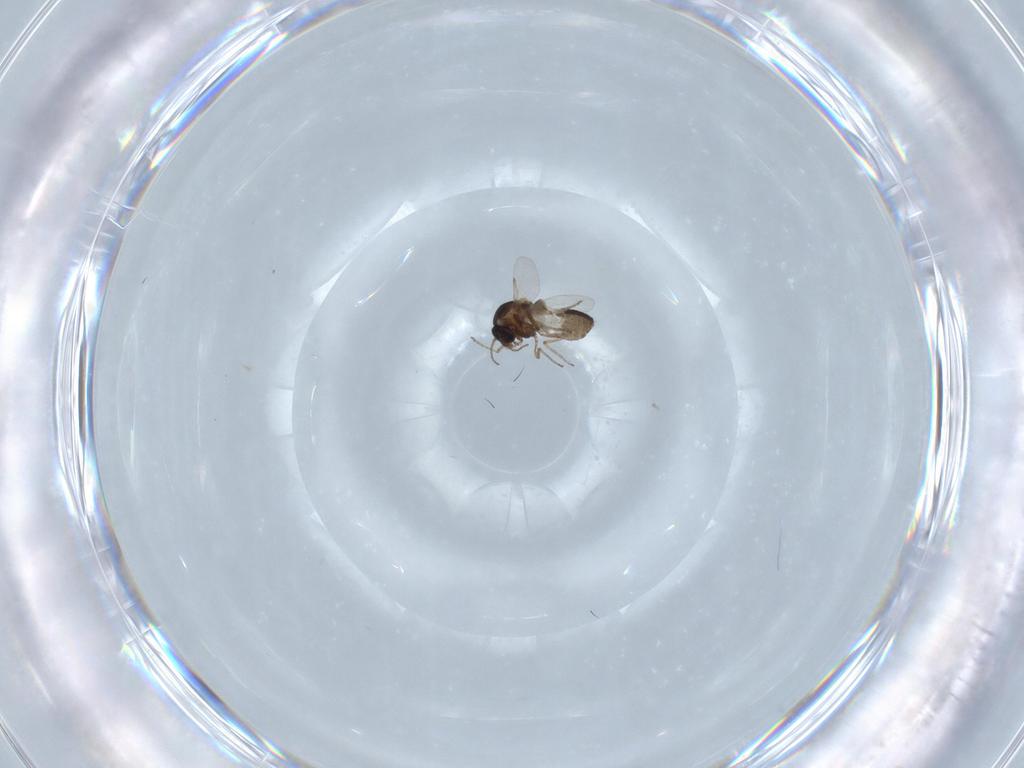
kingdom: Animalia
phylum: Arthropoda
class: Insecta
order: Diptera
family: Ceratopogonidae
